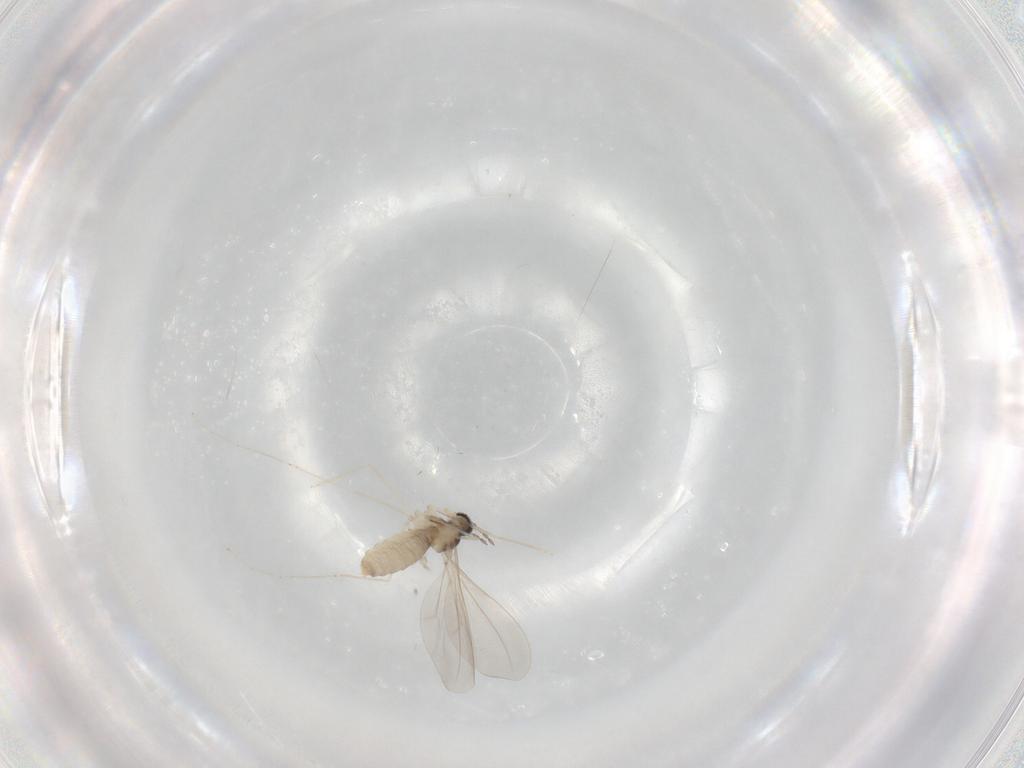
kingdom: Animalia
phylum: Arthropoda
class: Insecta
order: Diptera
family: Cecidomyiidae
